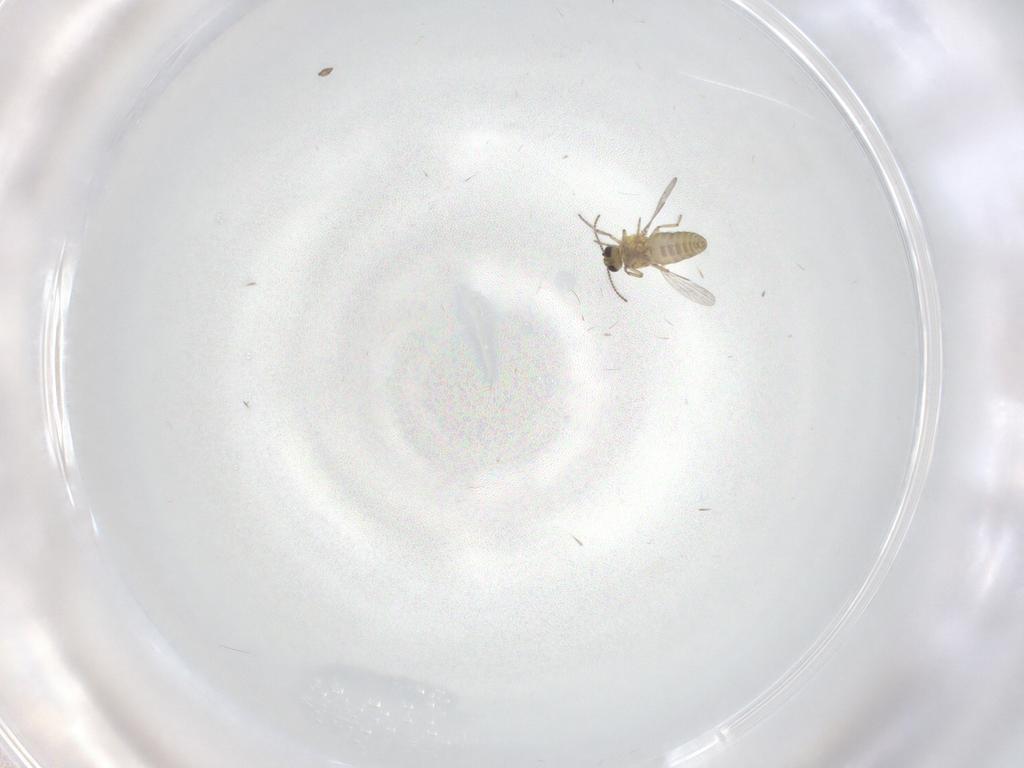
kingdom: Animalia
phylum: Arthropoda
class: Insecta
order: Diptera
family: Ceratopogonidae
